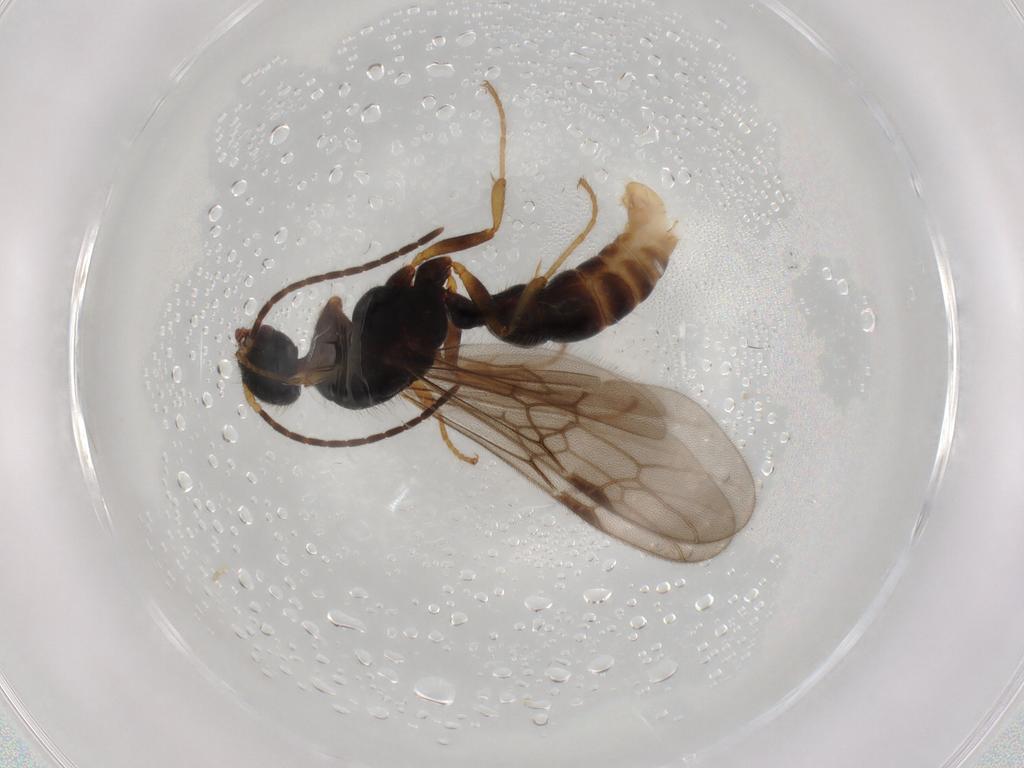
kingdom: Animalia
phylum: Arthropoda
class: Insecta
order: Hymenoptera
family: Formicidae
